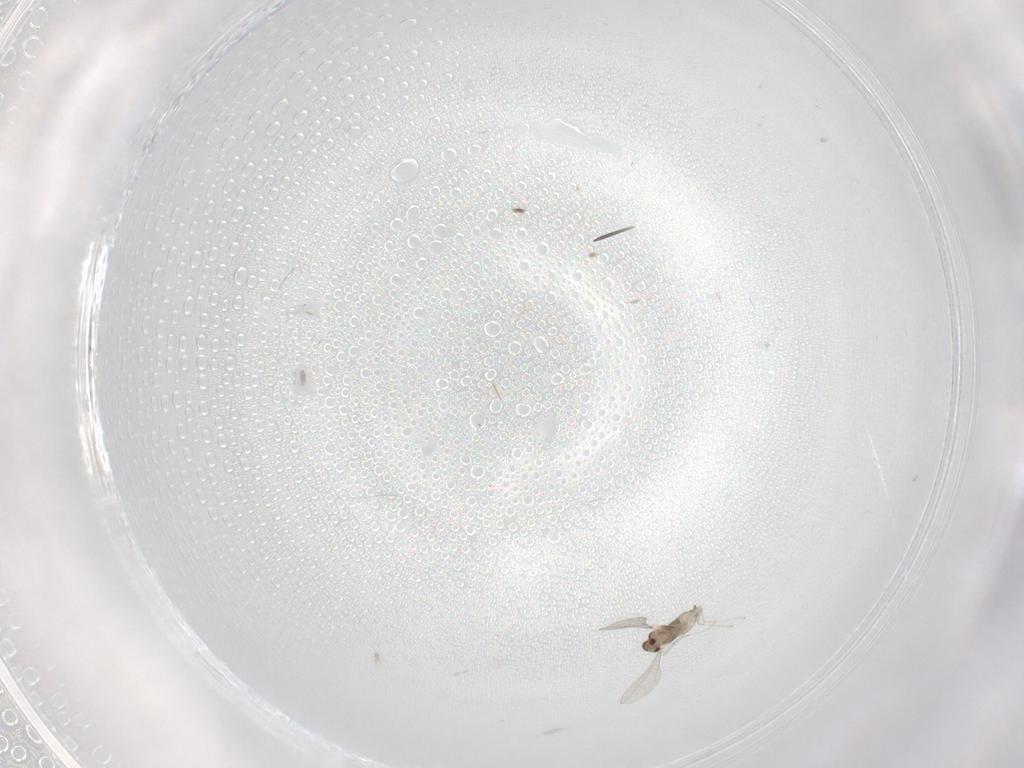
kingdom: Animalia
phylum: Arthropoda
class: Insecta
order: Diptera
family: Cecidomyiidae
